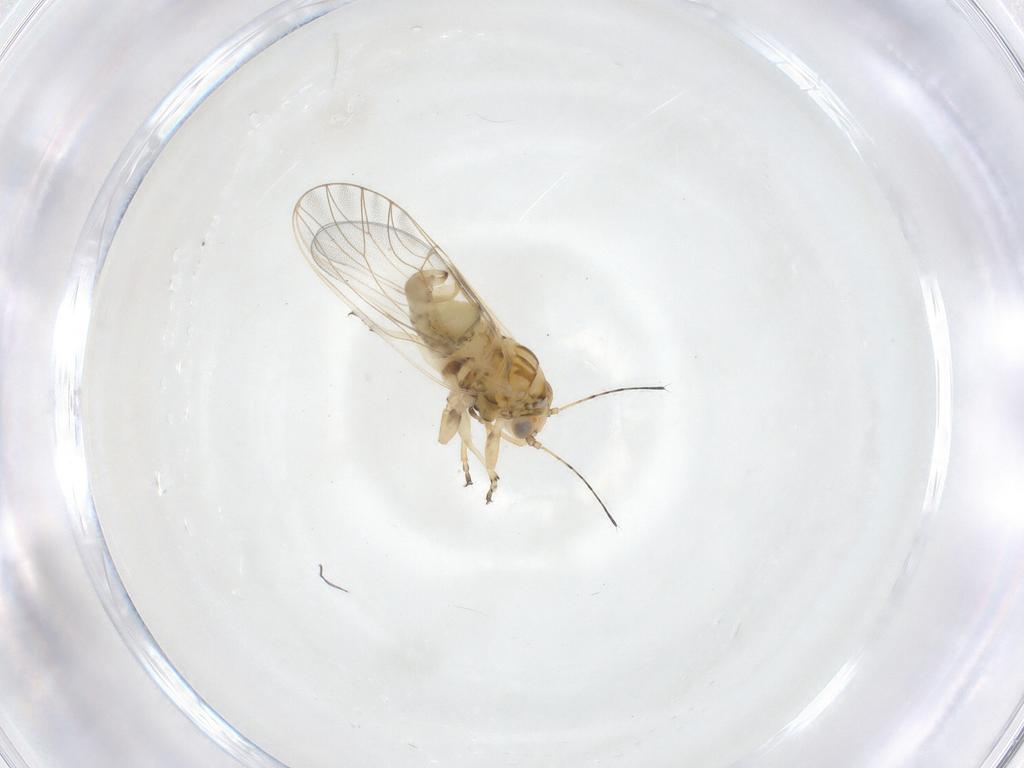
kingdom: Animalia
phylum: Arthropoda
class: Insecta
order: Hemiptera
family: Psyllidae
